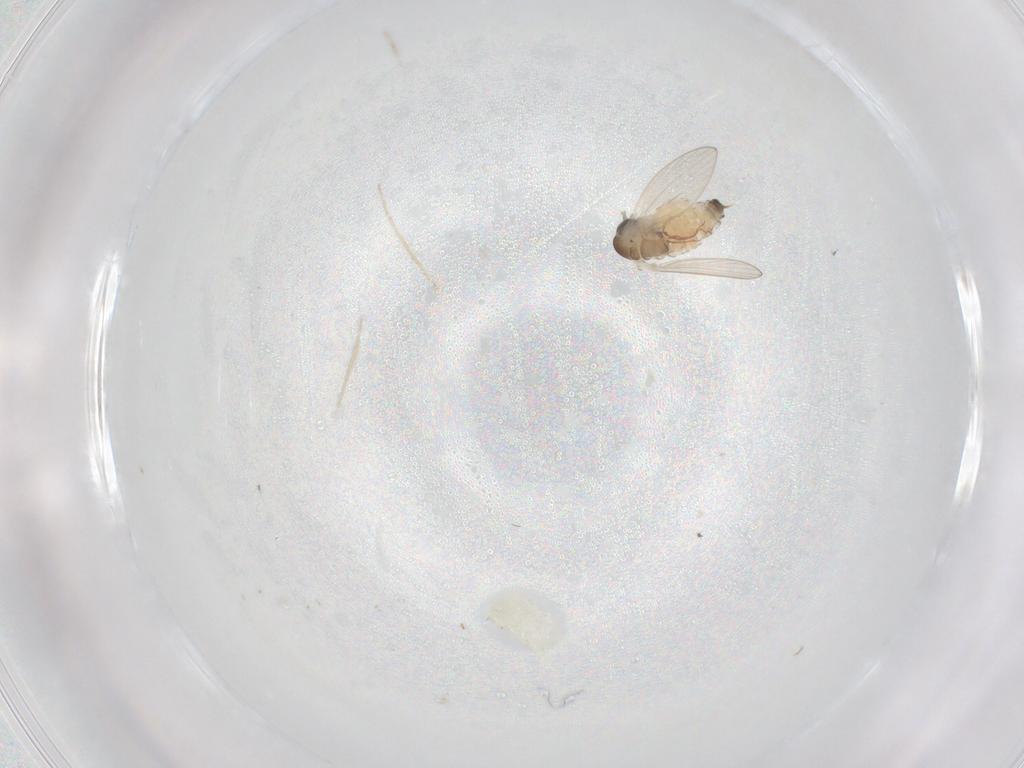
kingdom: Animalia
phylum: Arthropoda
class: Insecta
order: Diptera
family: Psychodidae
